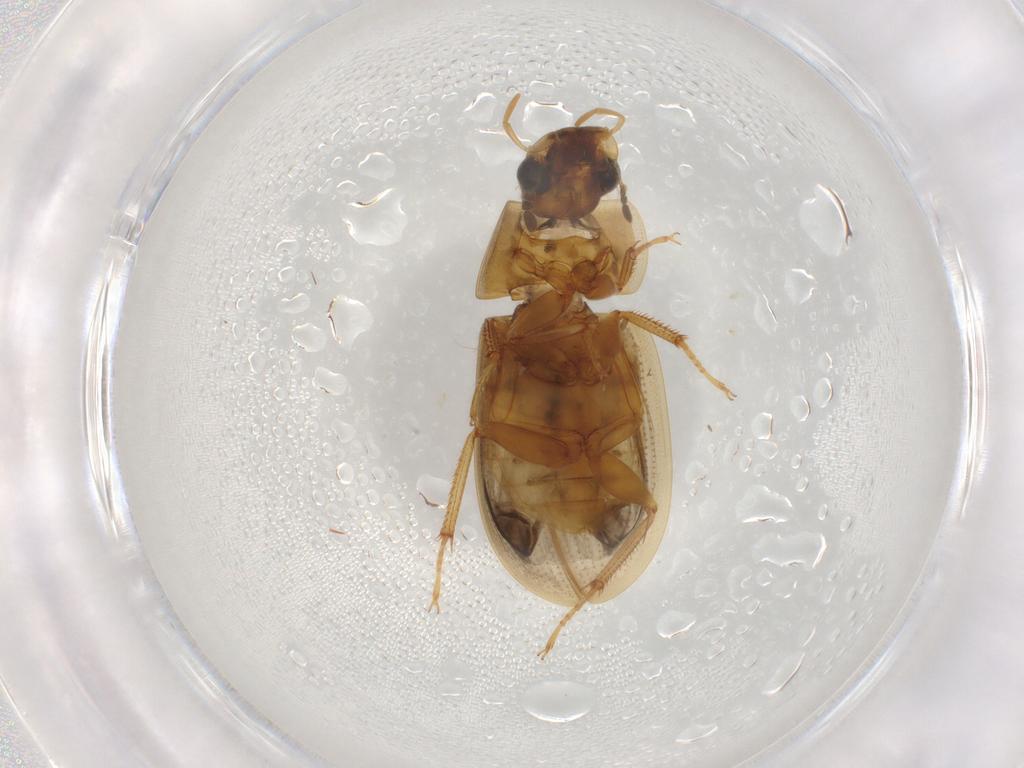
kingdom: Animalia
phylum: Arthropoda
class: Insecta
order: Coleoptera
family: Hydrophilidae
